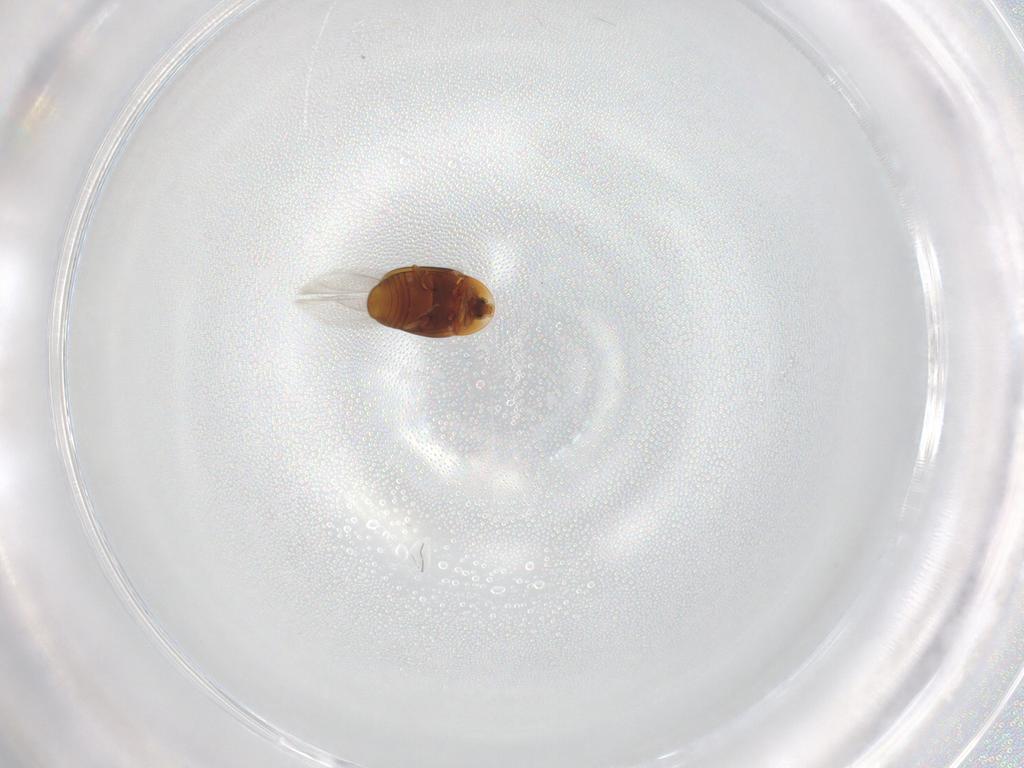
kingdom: Animalia
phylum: Arthropoda
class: Insecta
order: Coleoptera
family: Corylophidae
